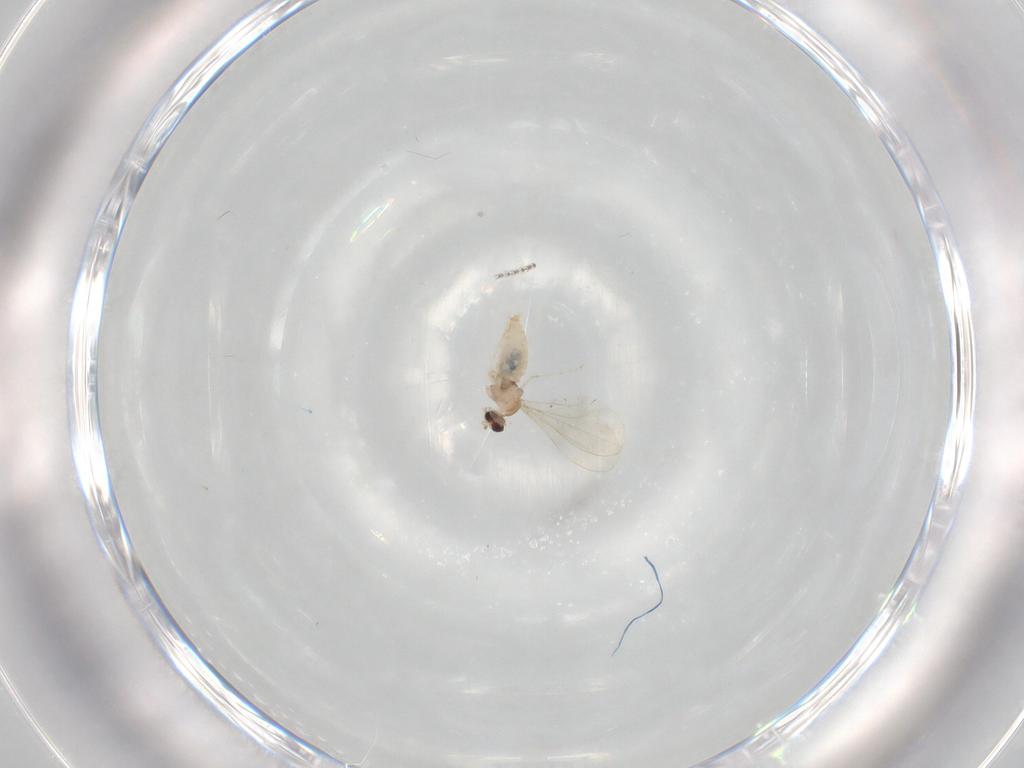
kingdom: Animalia
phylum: Arthropoda
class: Insecta
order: Diptera
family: Cecidomyiidae
